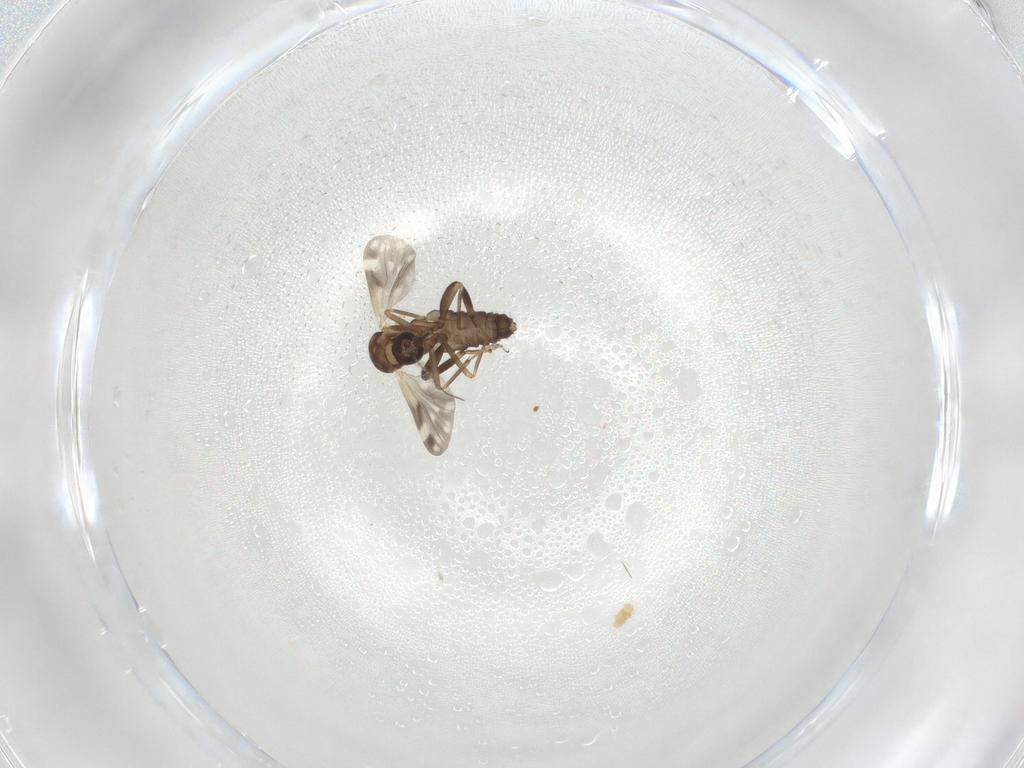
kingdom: Animalia
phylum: Arthropoda
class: Insecta
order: Diptera
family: Ceratopogonidae
